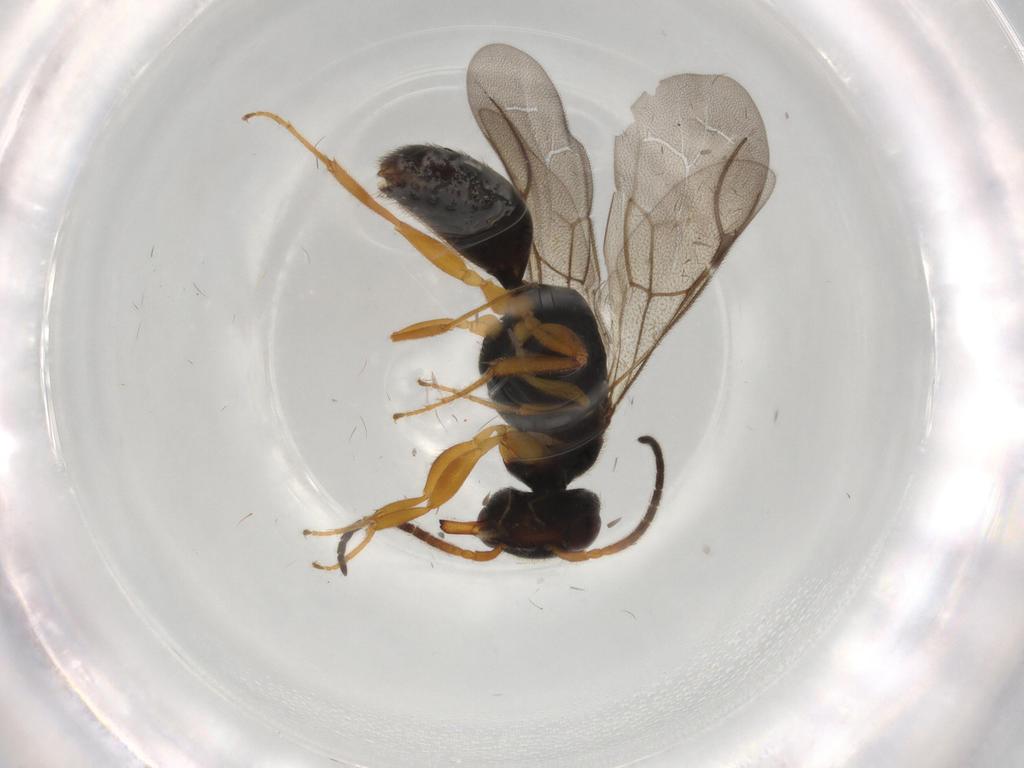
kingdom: Animalia
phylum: Arthropoda
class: Insecta
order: Hymenoptera
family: Bethylidae
